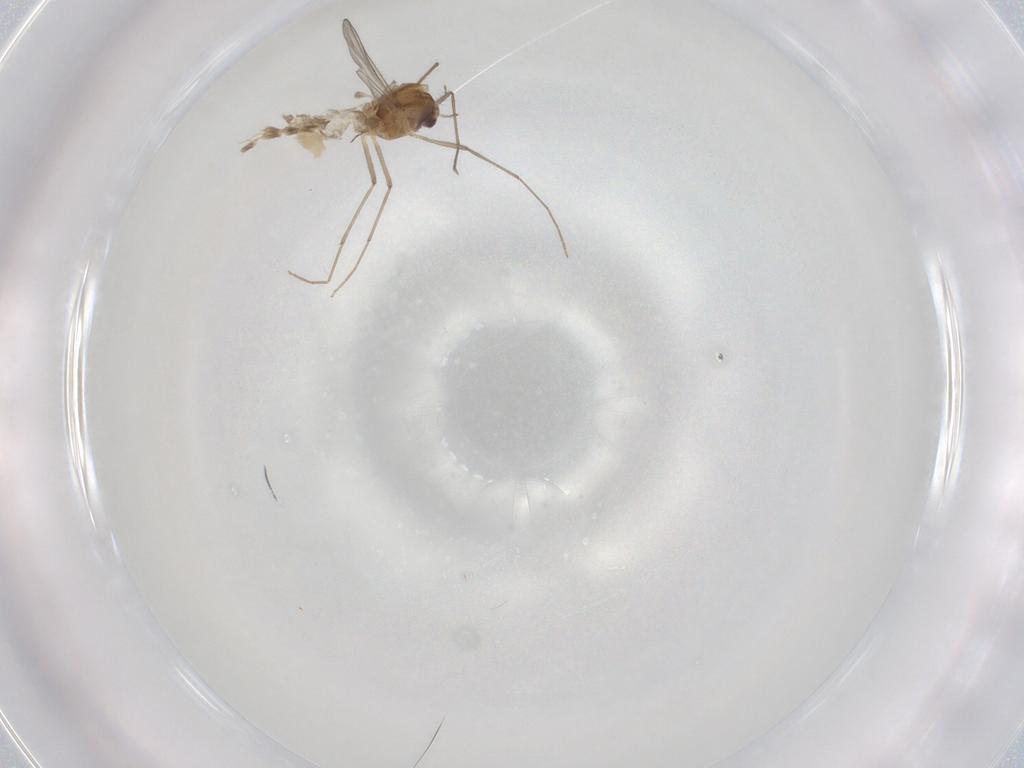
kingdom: Animalia
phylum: Arthropoda
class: Insecta
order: Diptera
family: Chironomidae
